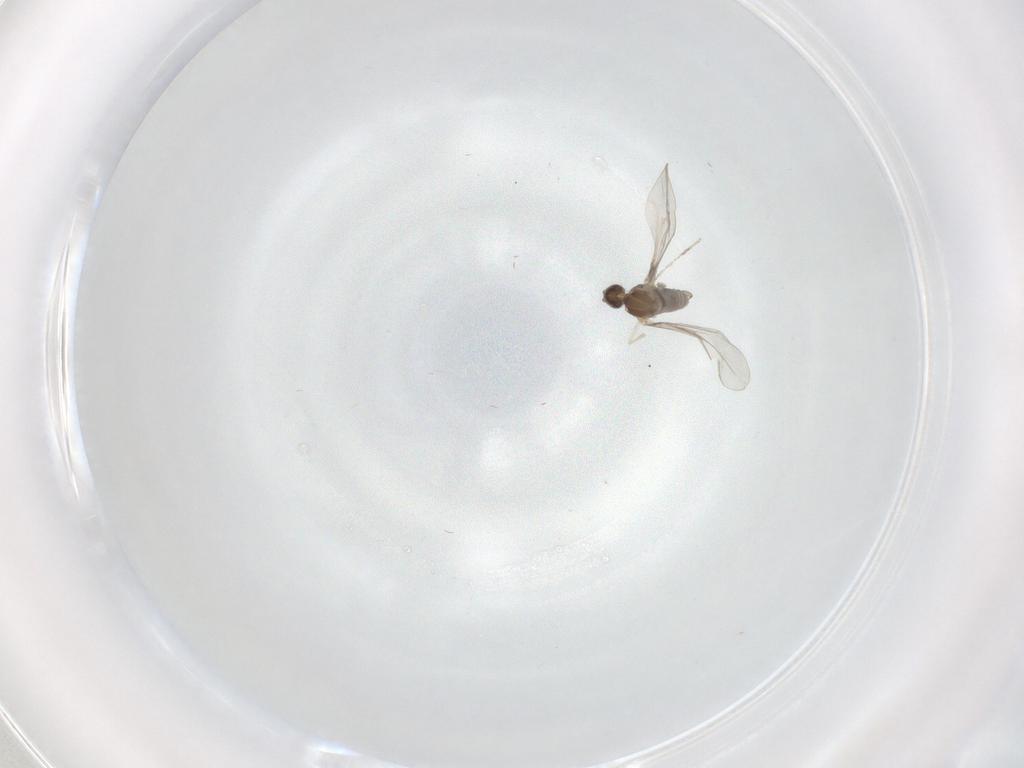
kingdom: Animalia
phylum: Arthropoda
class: Insecta
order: Diptera
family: Cecidomyiidae
